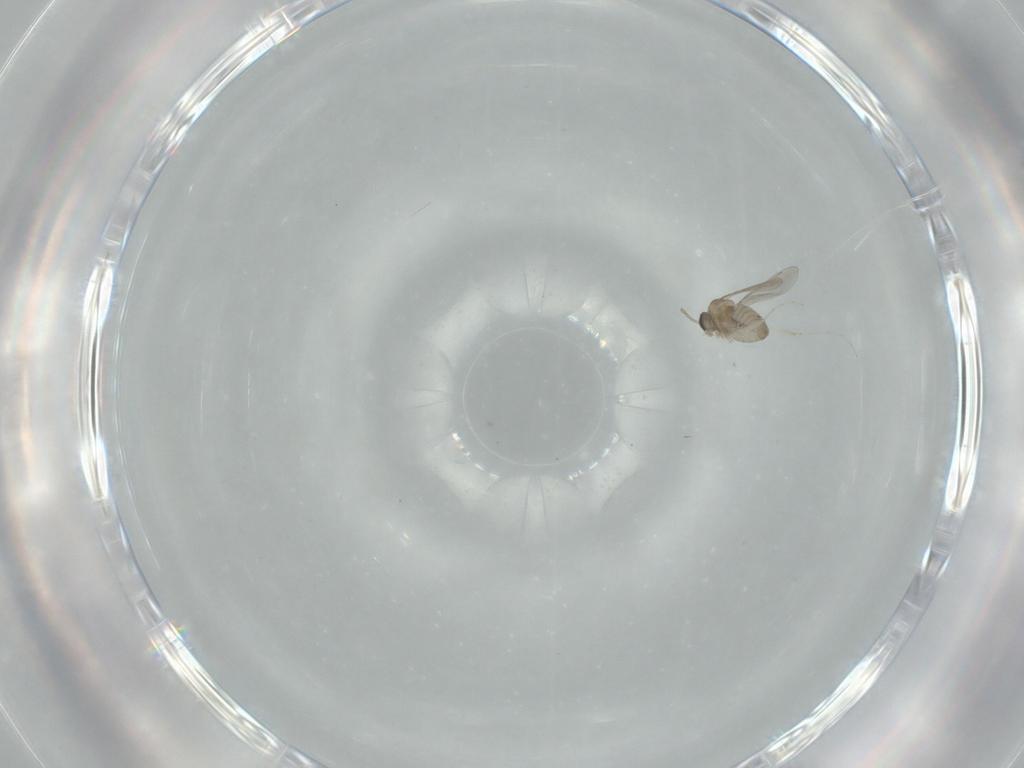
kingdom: Animalia
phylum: Arthropoda
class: Insecta
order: Diptera
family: Cecidomyiidae
